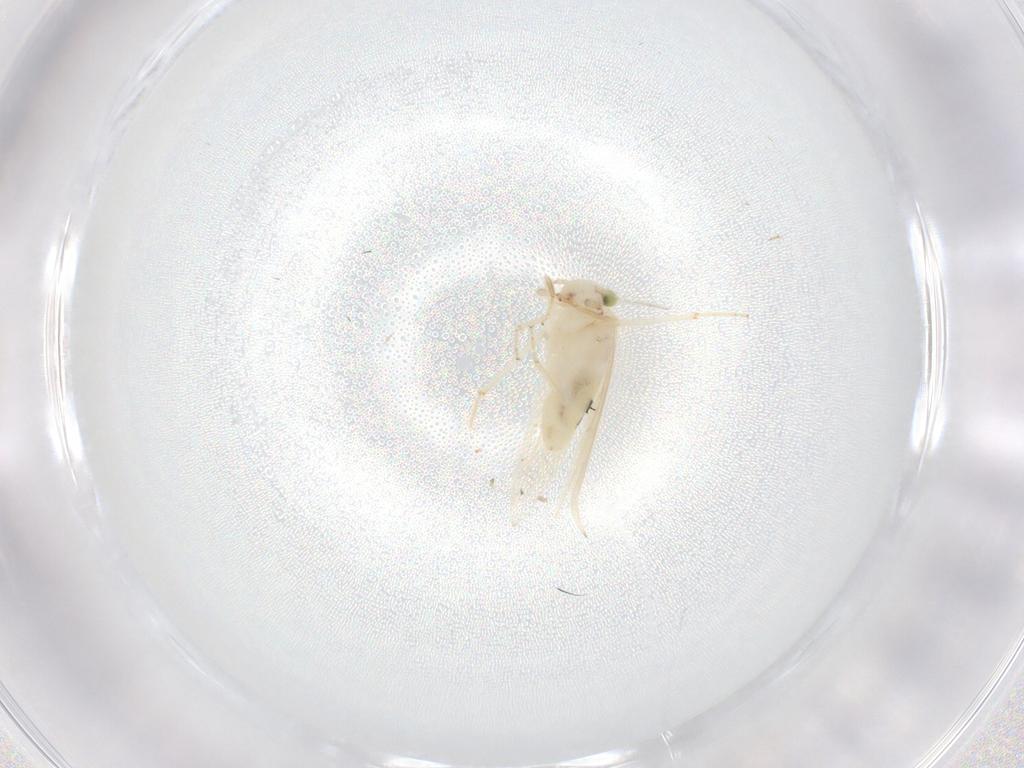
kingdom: Animalia
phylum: Arthropoda
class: Insecta
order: Psocodea
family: Lepidopsocidae
